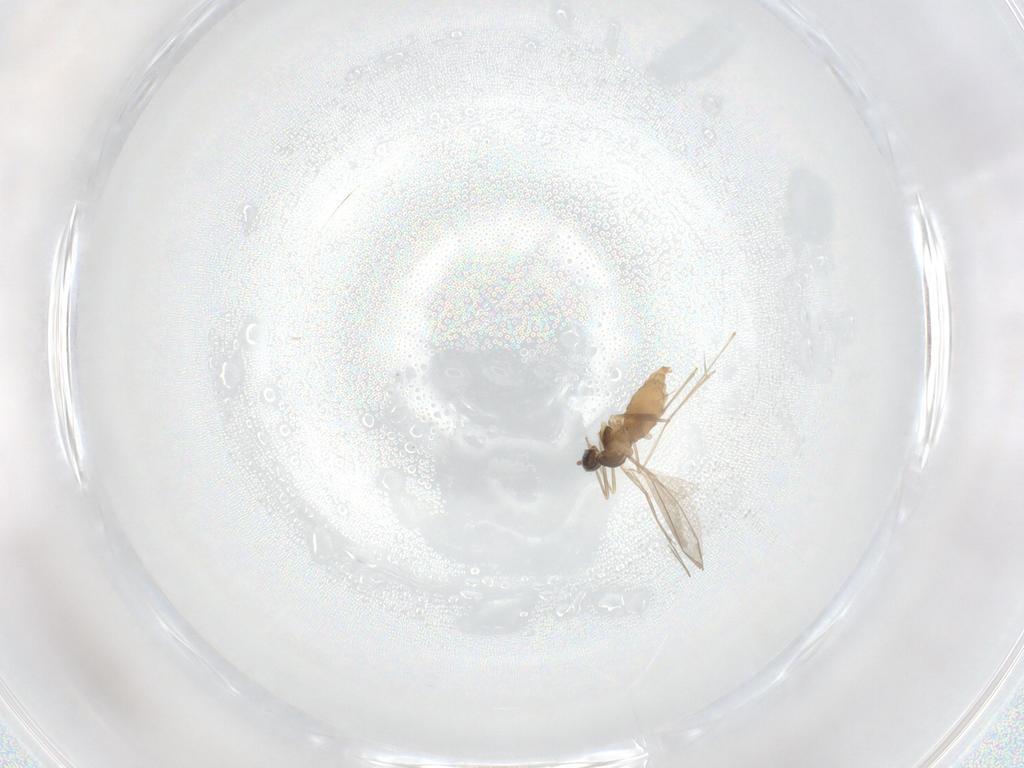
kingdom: Animalia
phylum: Arthropoda
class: Insecta
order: Diptera
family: Cecidomyiidae
